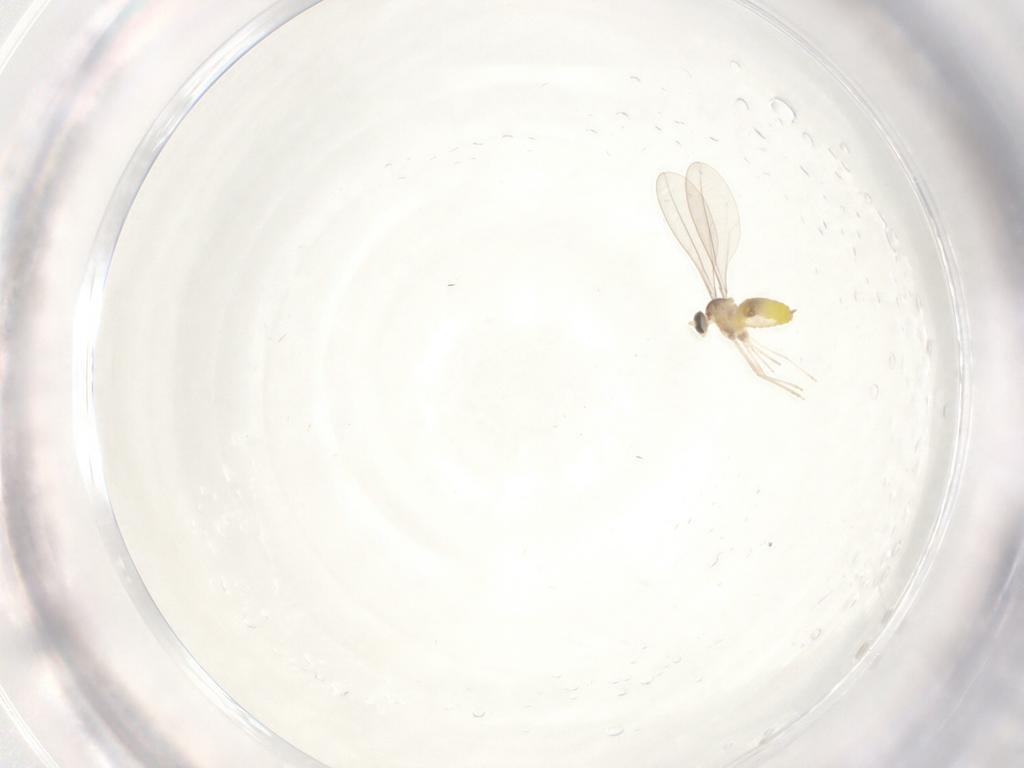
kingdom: Animalia
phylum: Arthropoda
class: Insecta
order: Diptera
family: Cecidomyiidae
